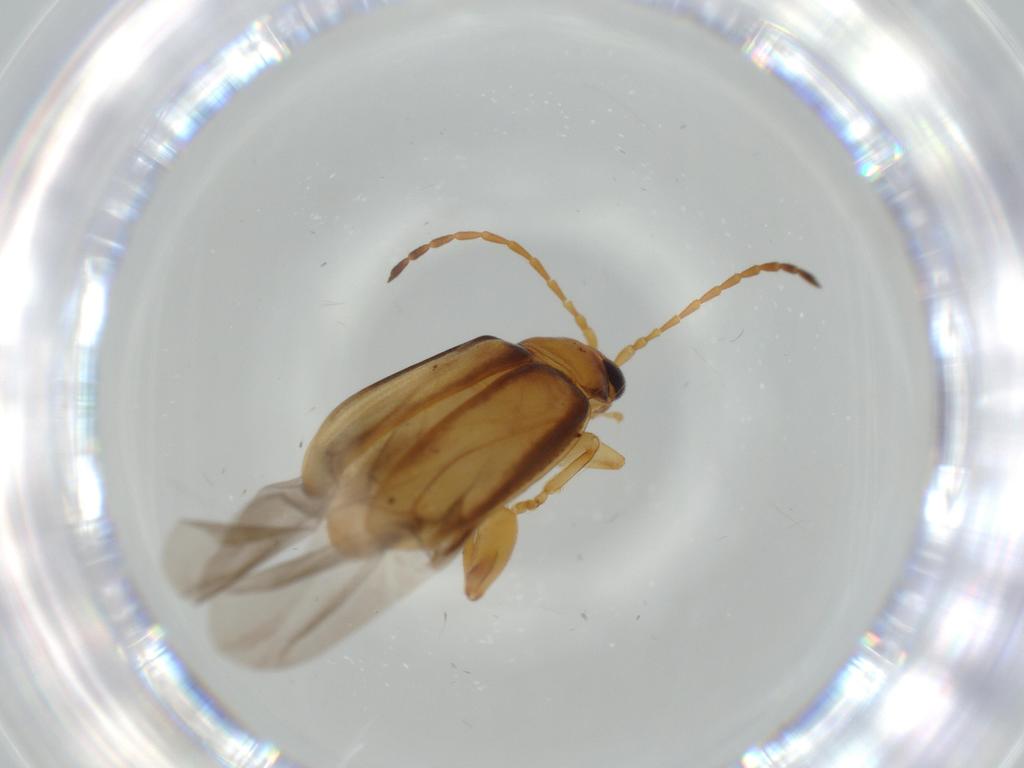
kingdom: Animalia
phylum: Arthropoda
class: Insecta
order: Coleoptera
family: Chrysomelidae
